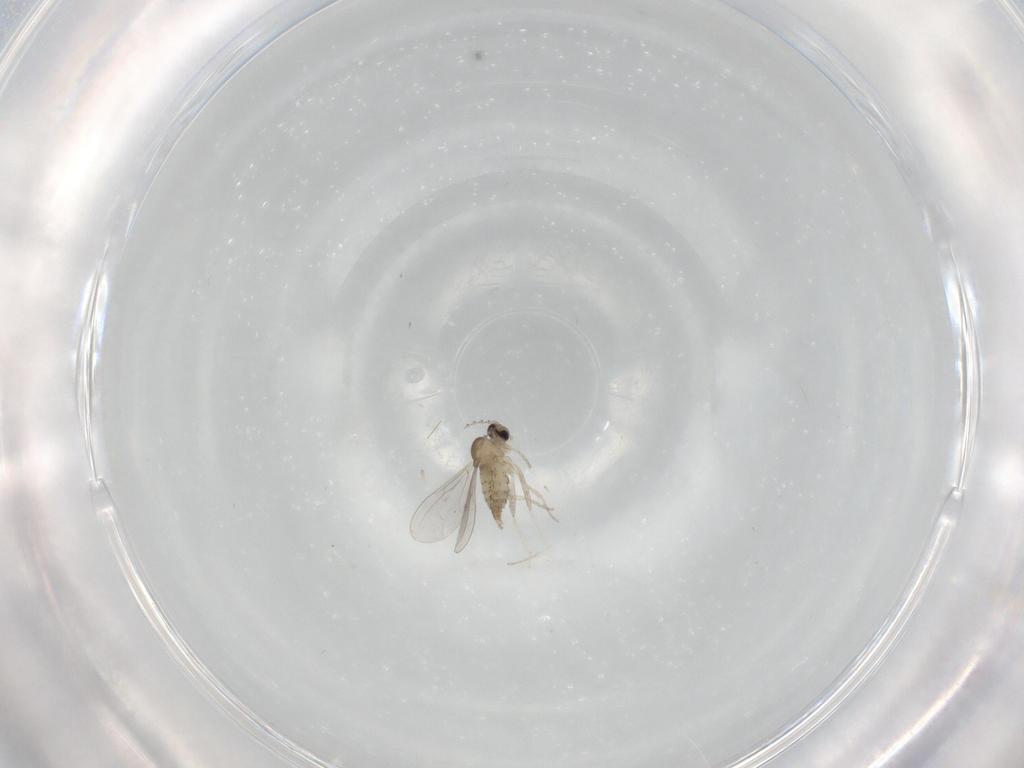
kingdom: Animalia
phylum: Arthropoda
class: Insecta
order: Diptera
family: Cecidomyiidae
